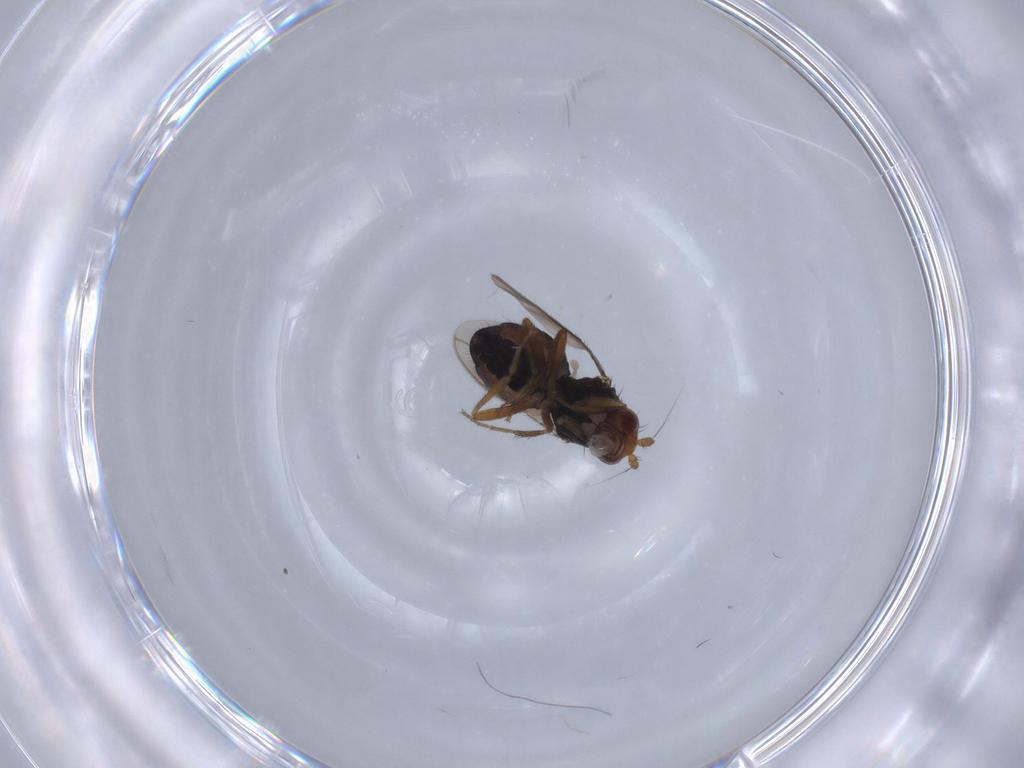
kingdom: Animalia
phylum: Arthropoda
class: Insecta
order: Diptera
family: Sphaeroceridae
